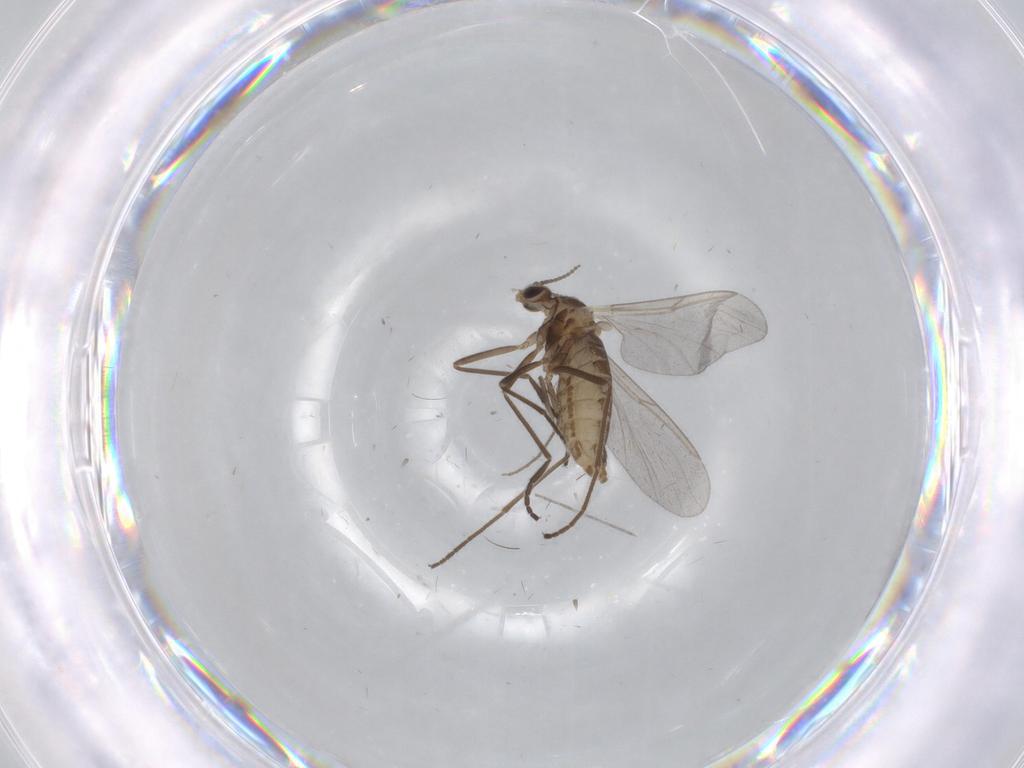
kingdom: Animalia
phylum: Arthropoda
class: Insecta
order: Diptera
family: Cecidomyiidae
